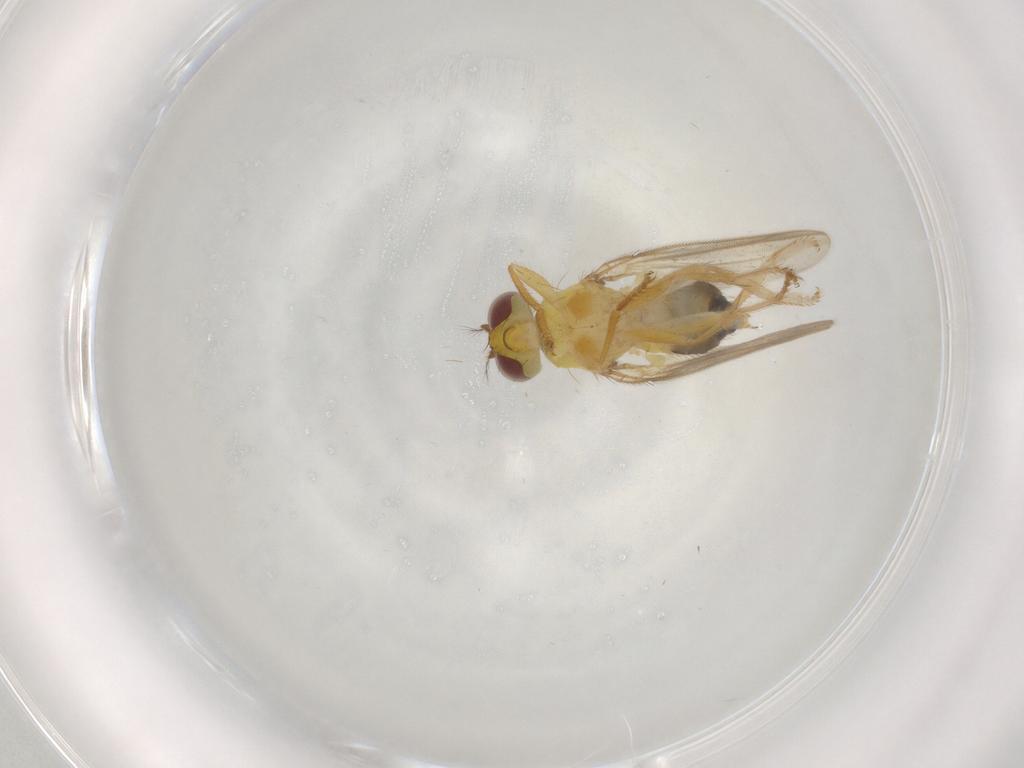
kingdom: Animalia
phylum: Arthropoda
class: Insecta
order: Diptera
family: Periscelididae
